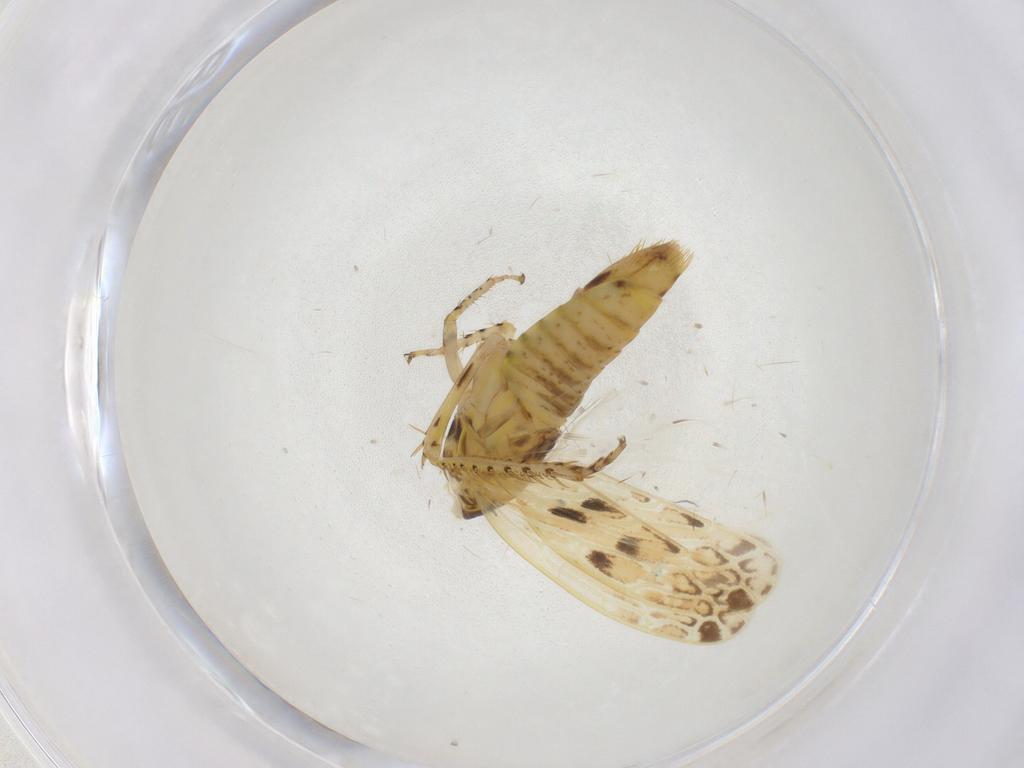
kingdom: Animalia
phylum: Arthropoda
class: Insecta
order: Hemiptera
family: Cicadellidae
